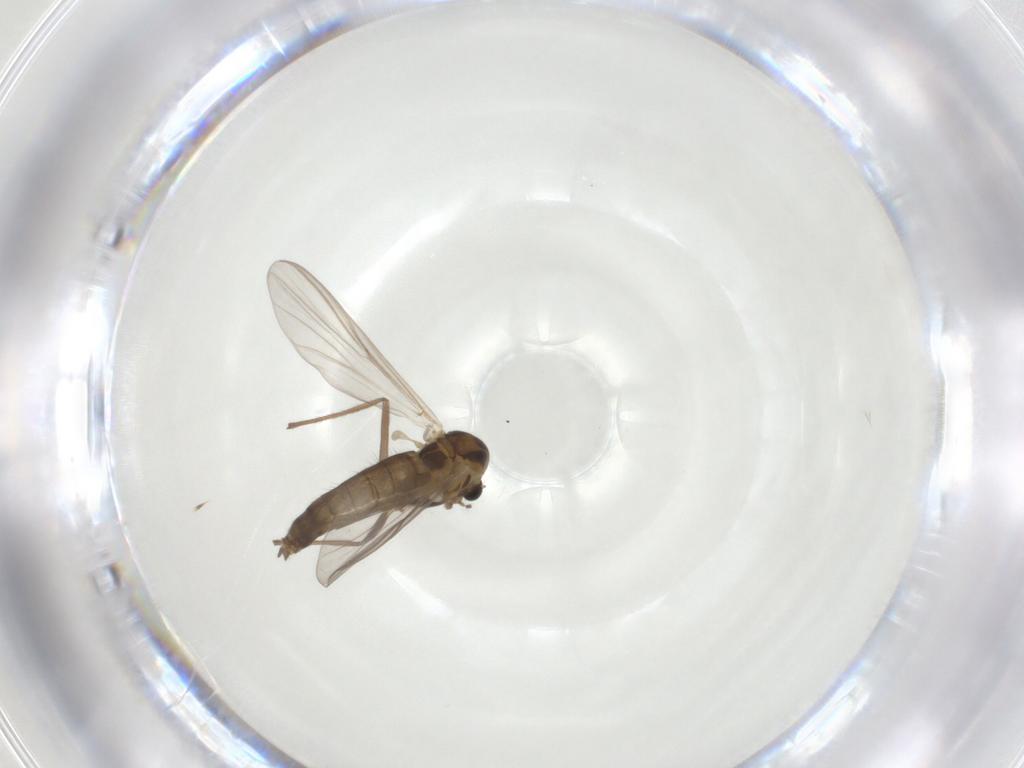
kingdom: Animalia
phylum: Arthropoda
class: Insecta
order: Diptera
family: Chironomidae
